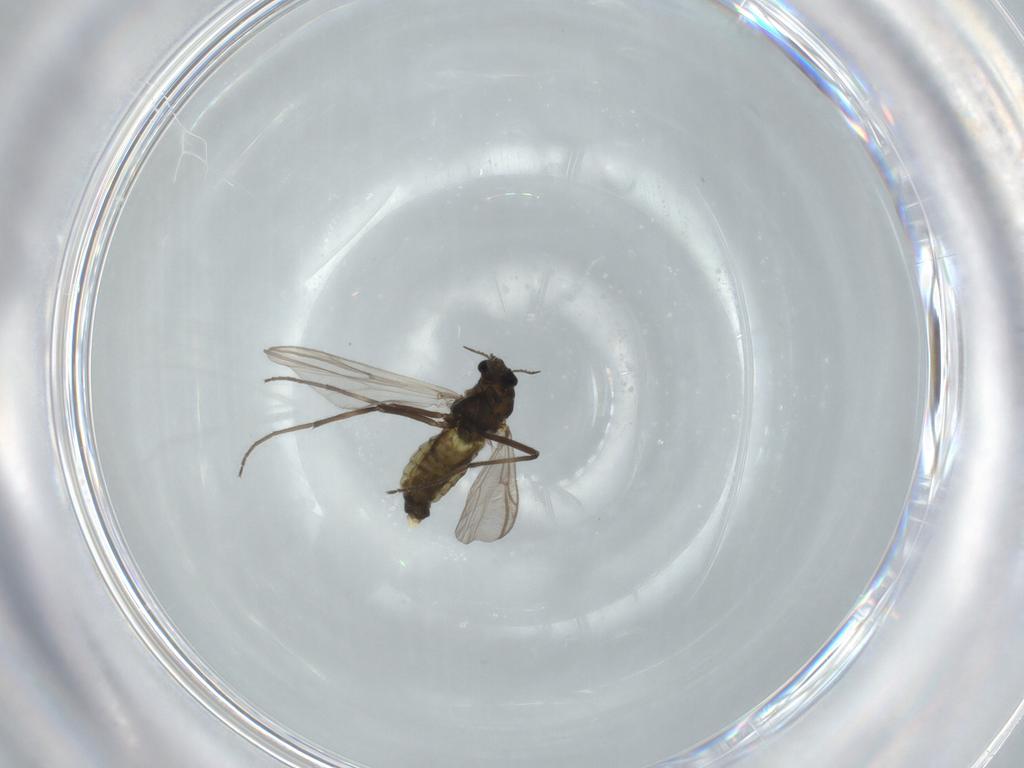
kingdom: Animalia
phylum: Arthropoda
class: Insecta
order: Diptera
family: Chironomidae
